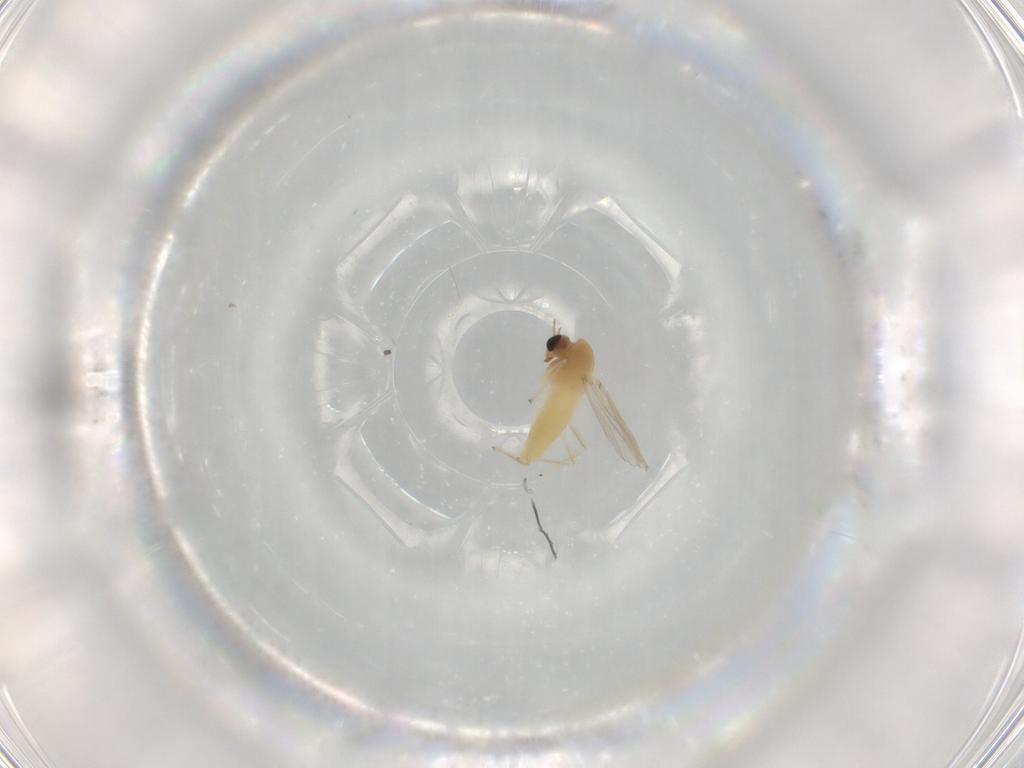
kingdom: Animalia
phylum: Arthropoda
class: Insecta
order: Diptera
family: Chironomidae
